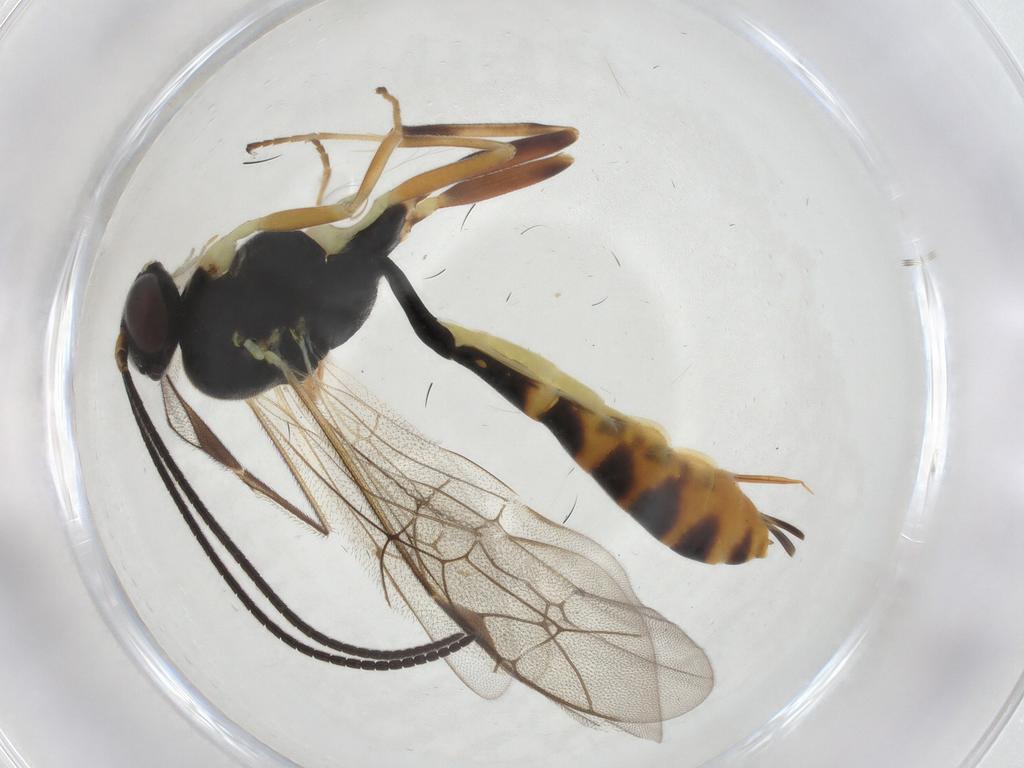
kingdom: Animalia
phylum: Arthropoda
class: Insecta
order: Hymenoptera
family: Ichneumonidae
